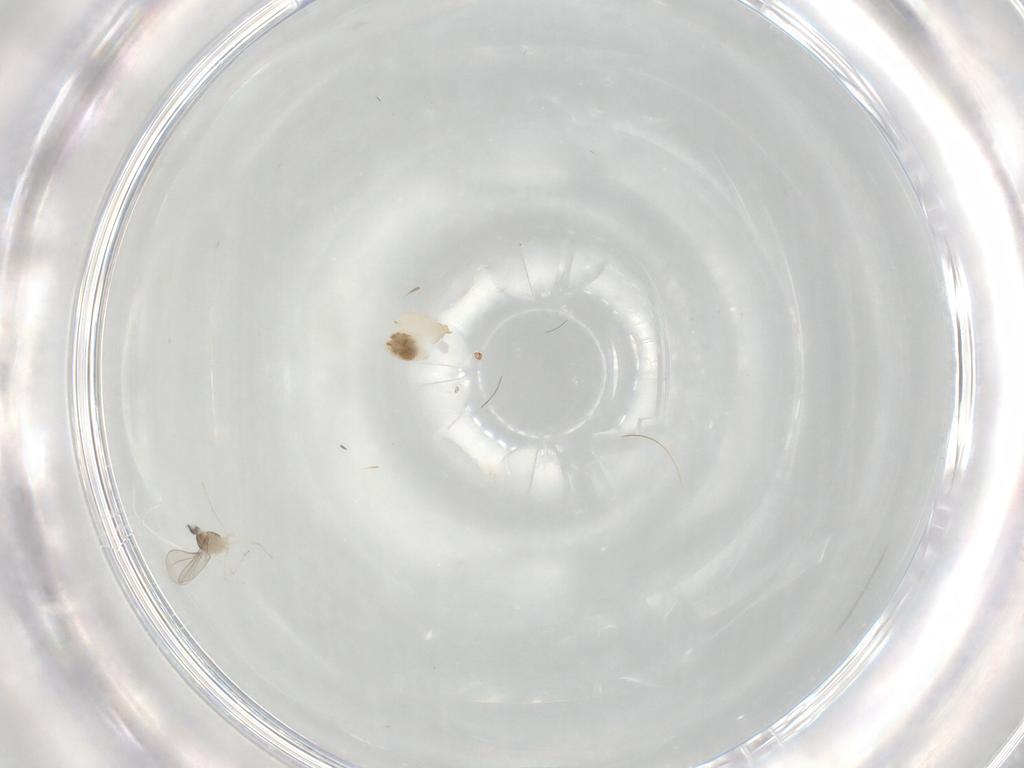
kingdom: Animalia
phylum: Arthropoda
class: Insecta
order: Diptera
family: Cecidomyiidae
